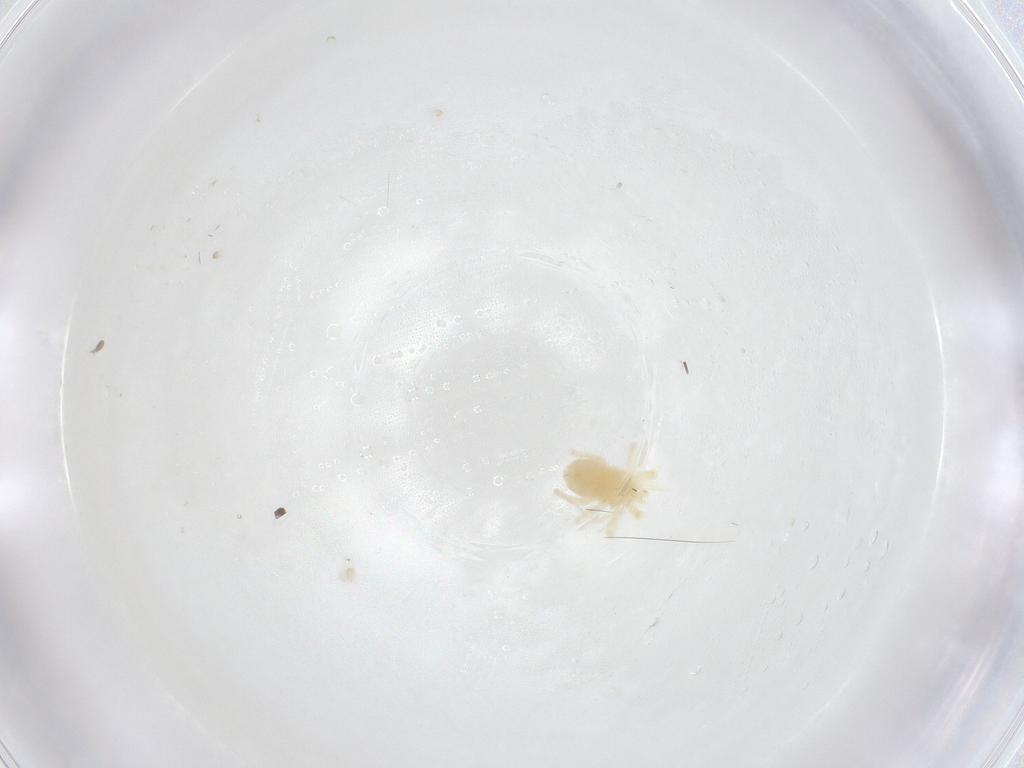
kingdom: Animalia
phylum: Arthropoda
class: Arachnida
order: Trombidiformes
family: Anystidae
